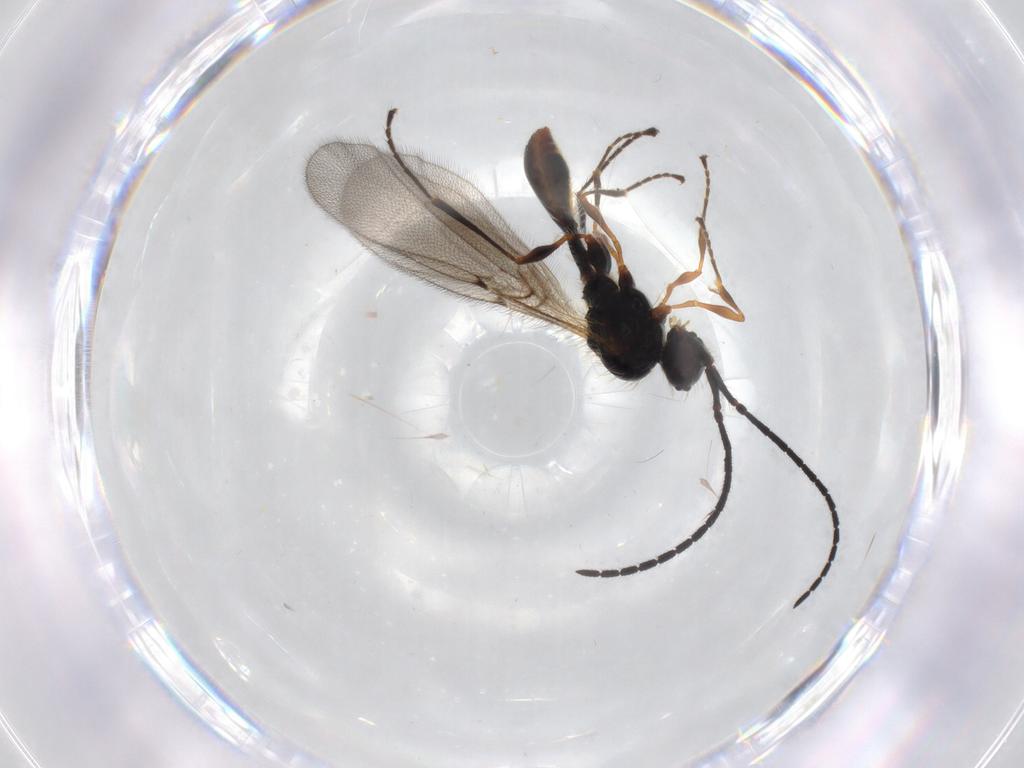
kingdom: Animalia
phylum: Arthropoda
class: Insecta
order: Hymenoptera
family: Diapriidae
